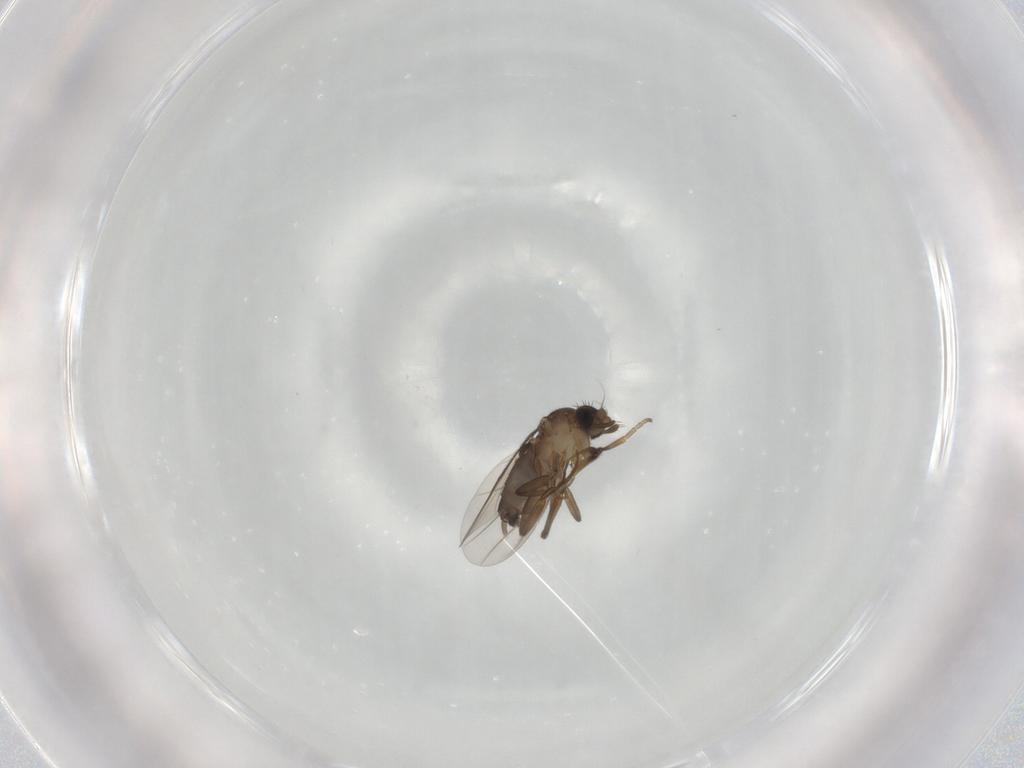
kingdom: Animalia
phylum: Arthropoda
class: Insecta
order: Diptera
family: Phoridae
